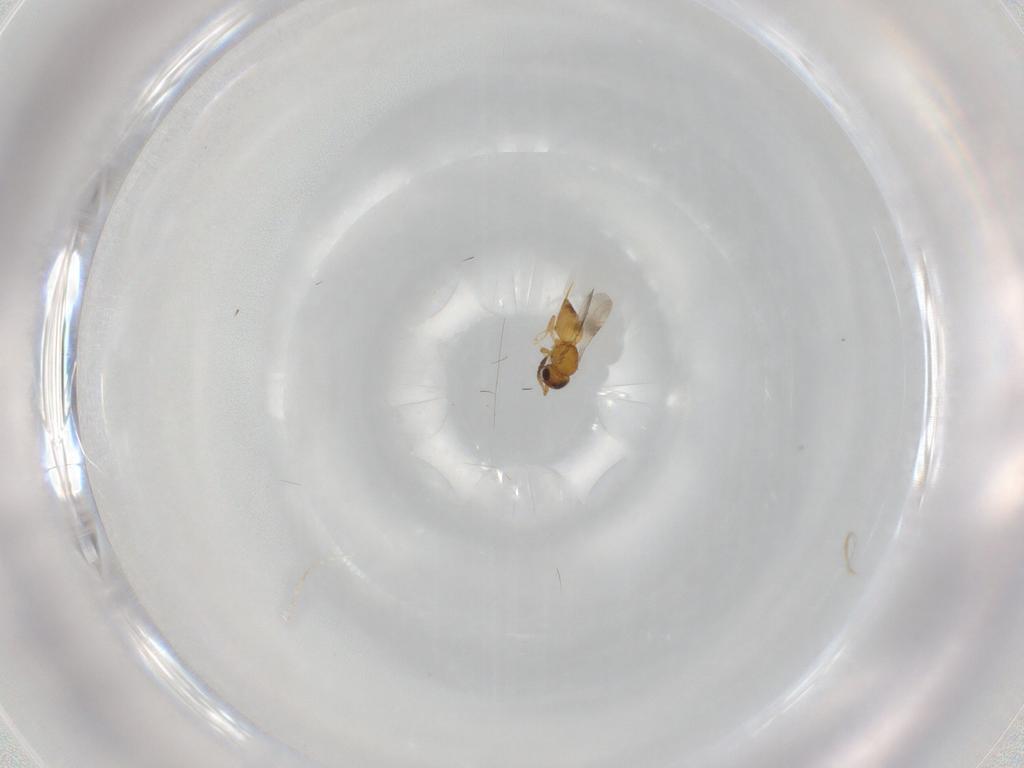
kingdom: Animalia
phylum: Arthropoda
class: Insecta
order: Hymenoptera
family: Ceraphronidae
